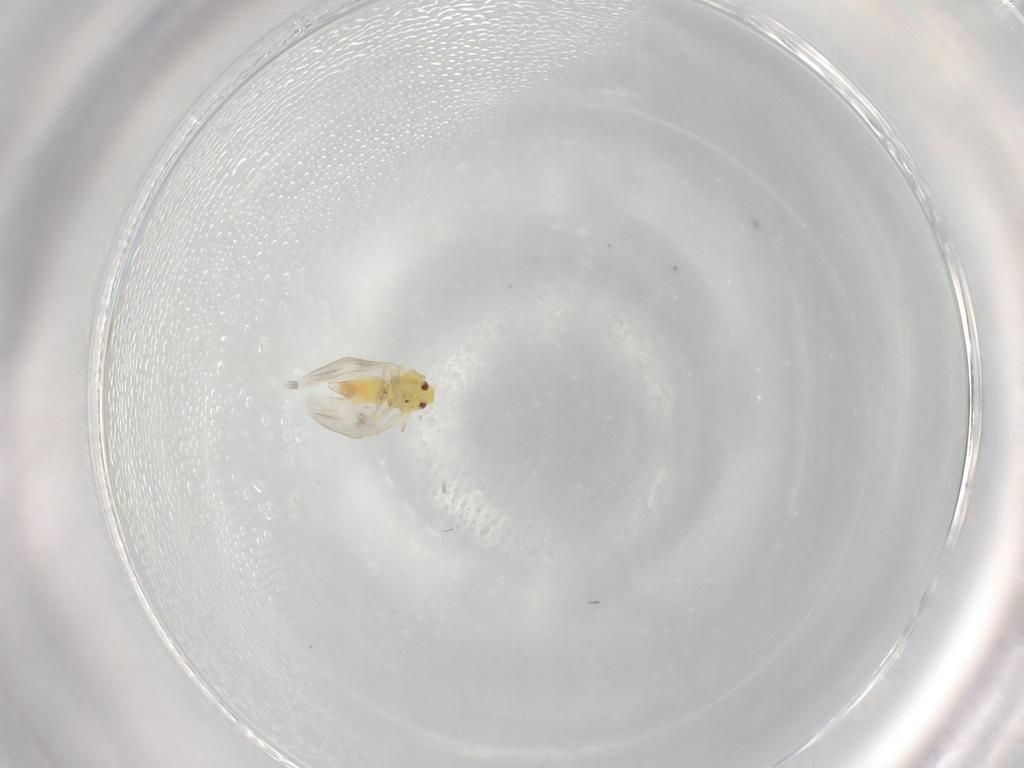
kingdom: Animalia
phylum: Arthropoda
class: Insecta
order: Hemiptera
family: Aleyrodidae
